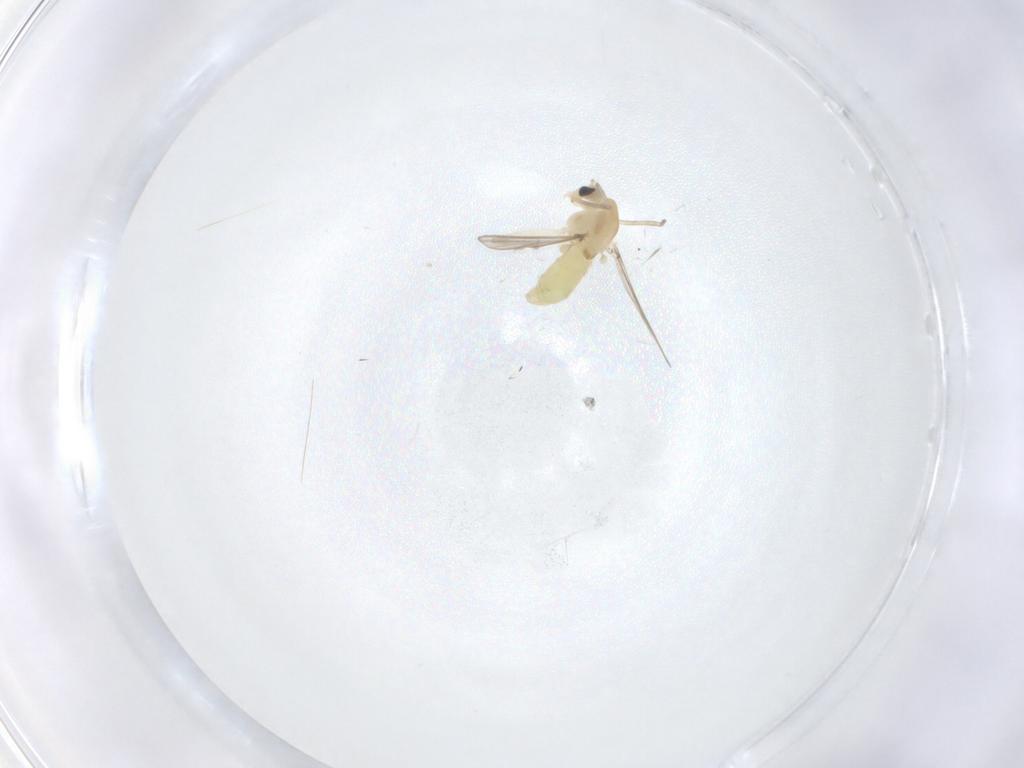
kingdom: Animalia
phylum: Arthropoda
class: Insecta
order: Diptera
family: Chironomidae
